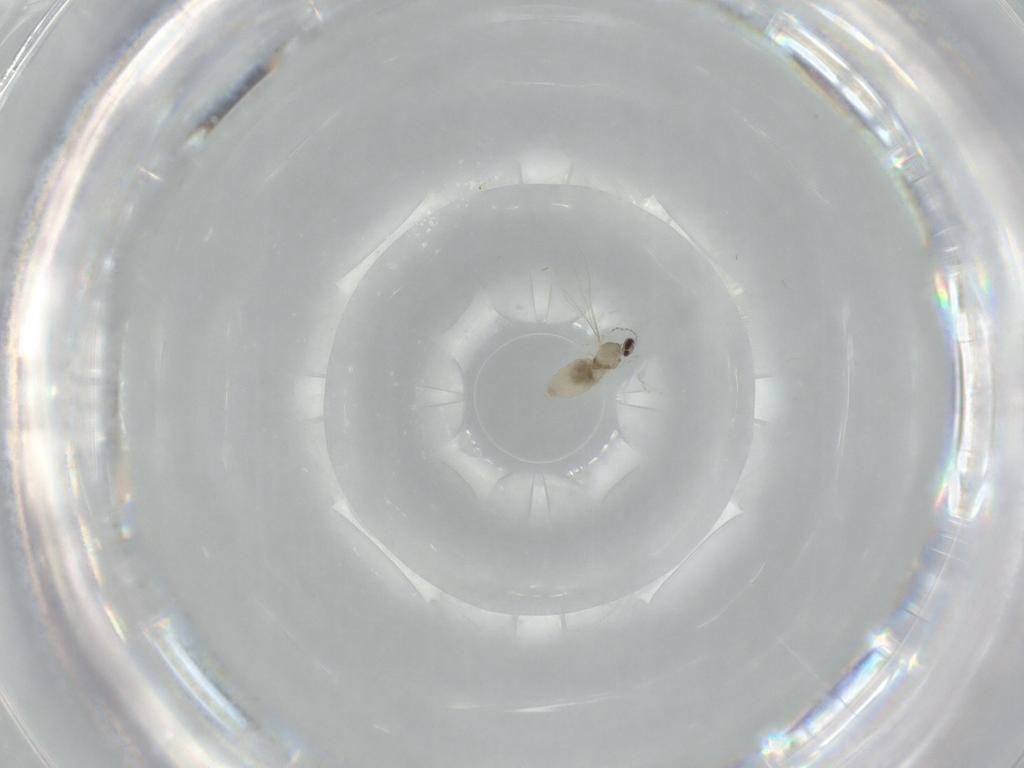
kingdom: Animalia
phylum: Arthropoda
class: Insecta
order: Diptera
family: Cecidomyiidae
